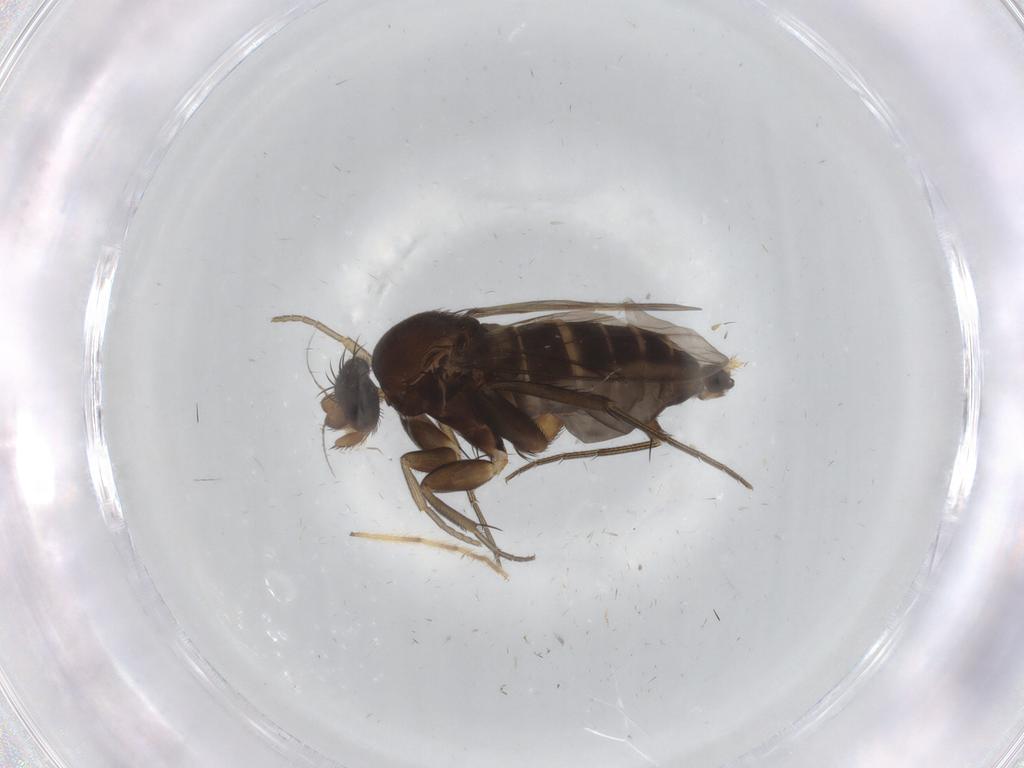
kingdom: Animalia
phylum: Arthropoda
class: Insecta
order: Diptera
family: Phoridae
